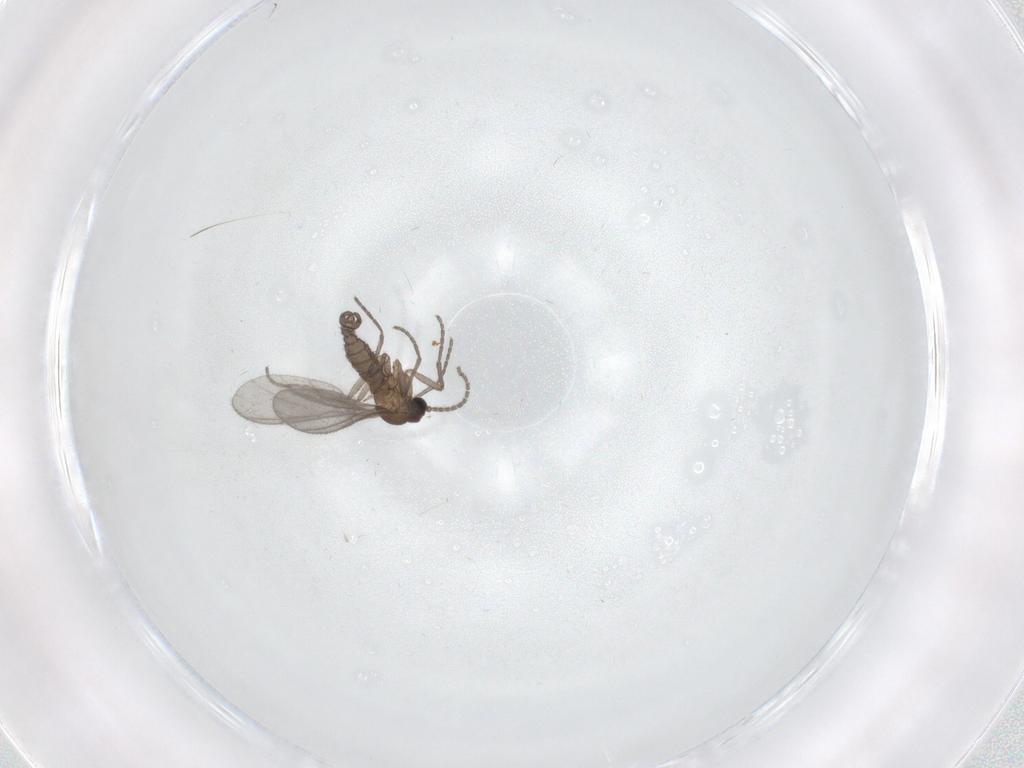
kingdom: Animalia
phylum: Arthropoda
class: Insecta
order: Diptera
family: Sciaridae
